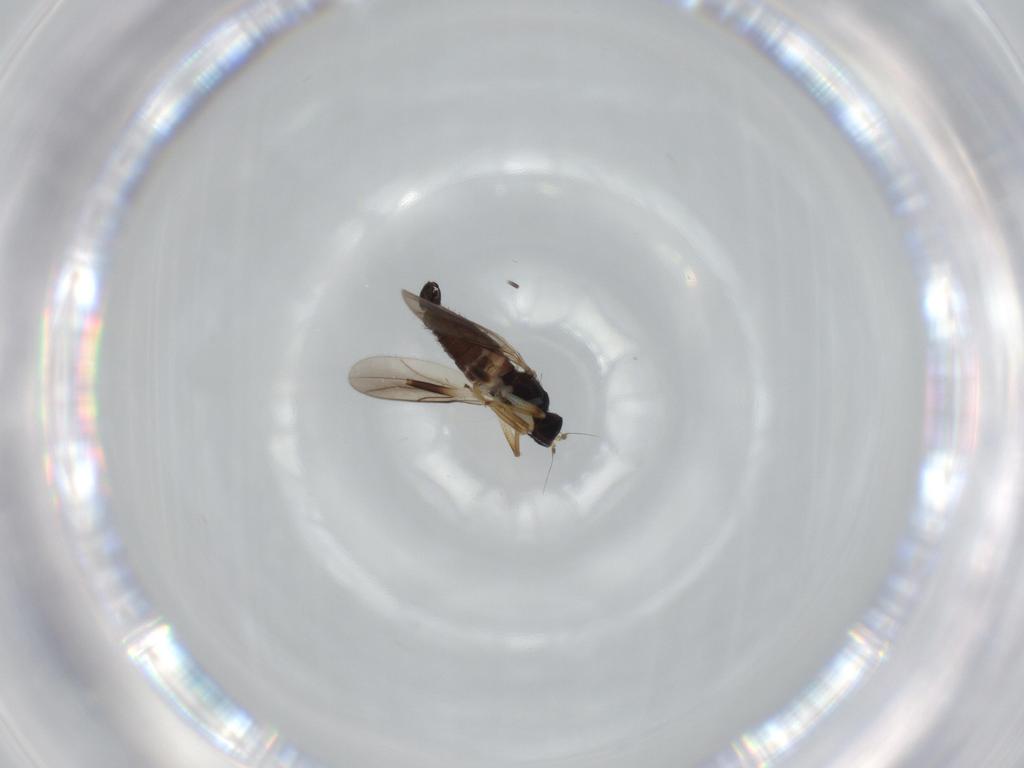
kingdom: Animalia
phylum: Arthropoda
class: Insecta
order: Diptera
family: Hybotidae
